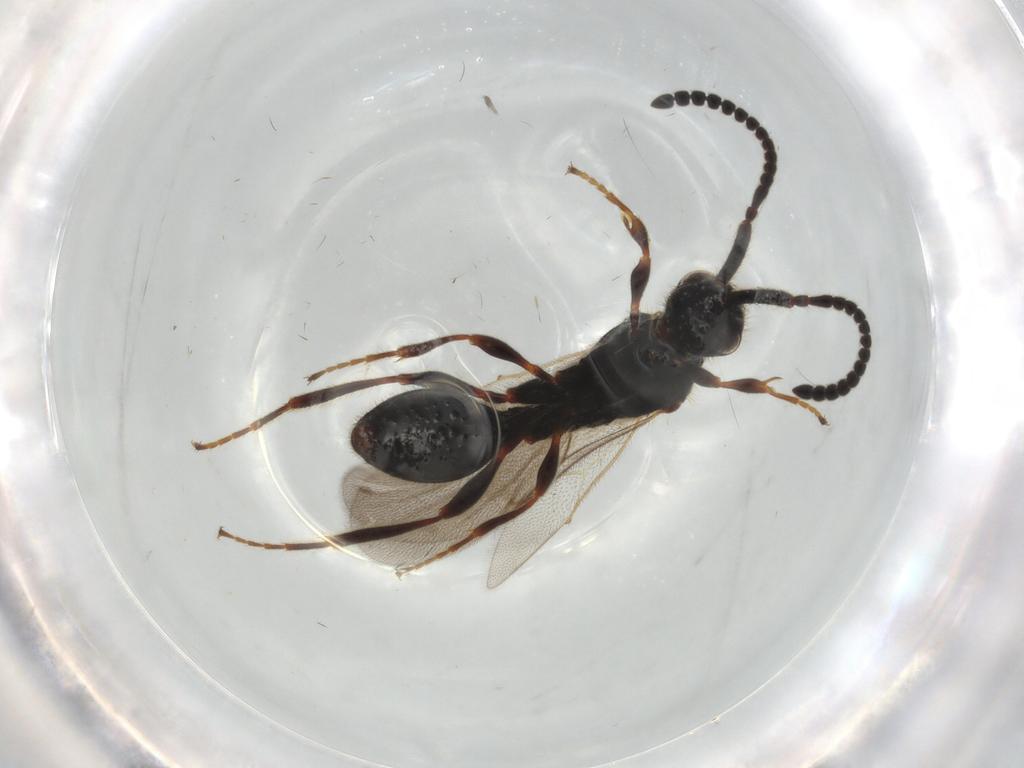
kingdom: Animalia
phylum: Arthropoda
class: Insecta
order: Hymenoptera
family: Diapriidae
